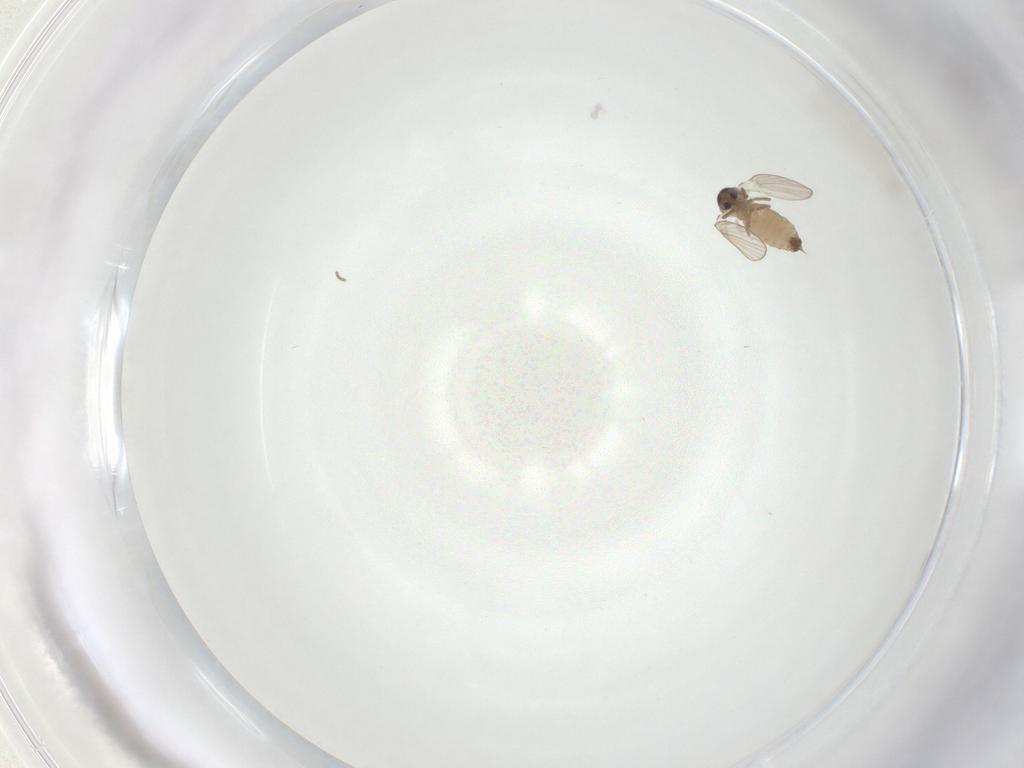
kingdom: Animalia
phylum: Arthropoda
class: Insecta
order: Diptera
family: Psychodidae
